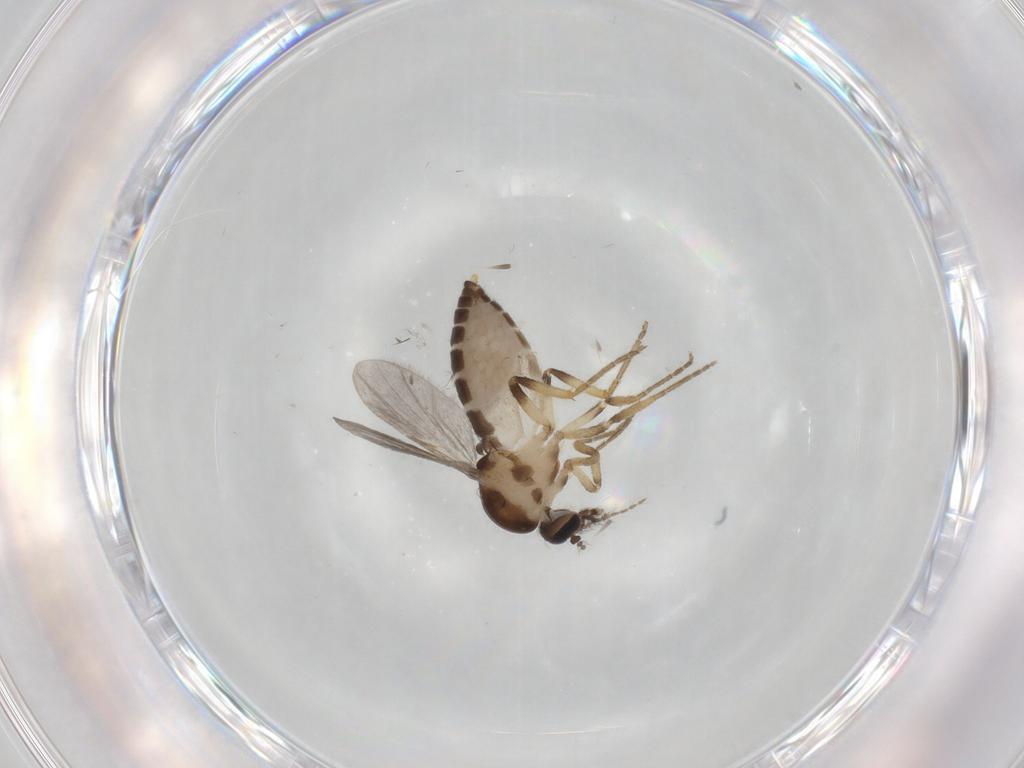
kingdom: Animalia
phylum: Arthropoda
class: Insecta
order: Diptera
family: Ceratopogonidae
